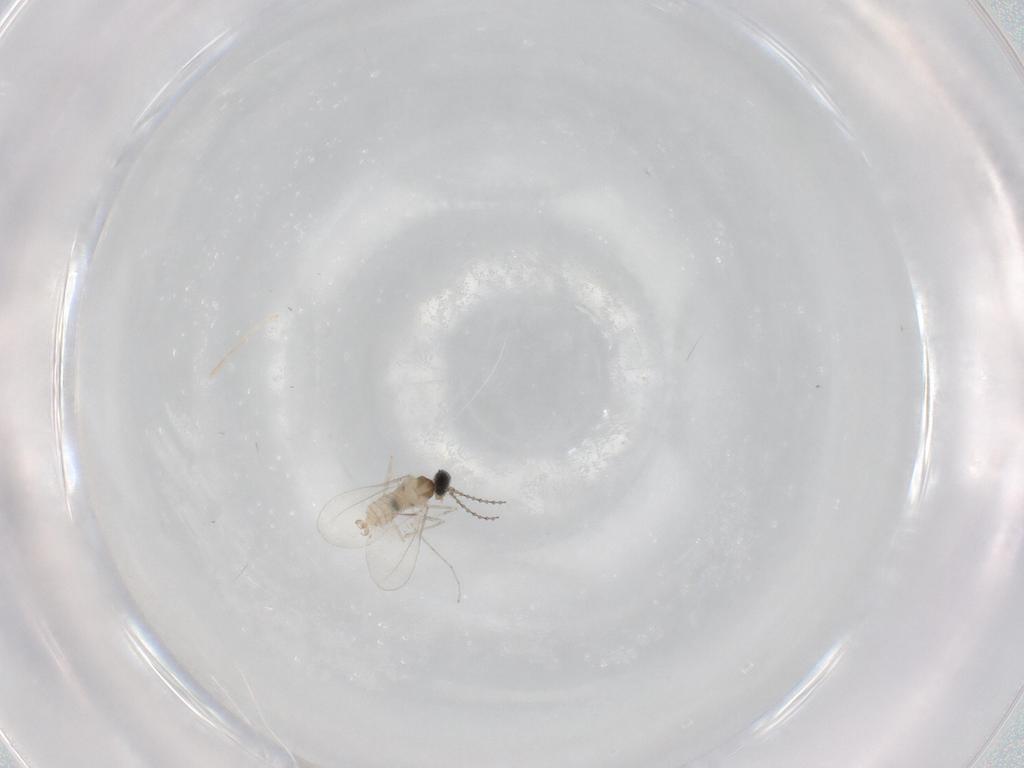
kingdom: Animalia
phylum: Arthropoda
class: Insecta
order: Diptera
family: Cecidomyiidae
